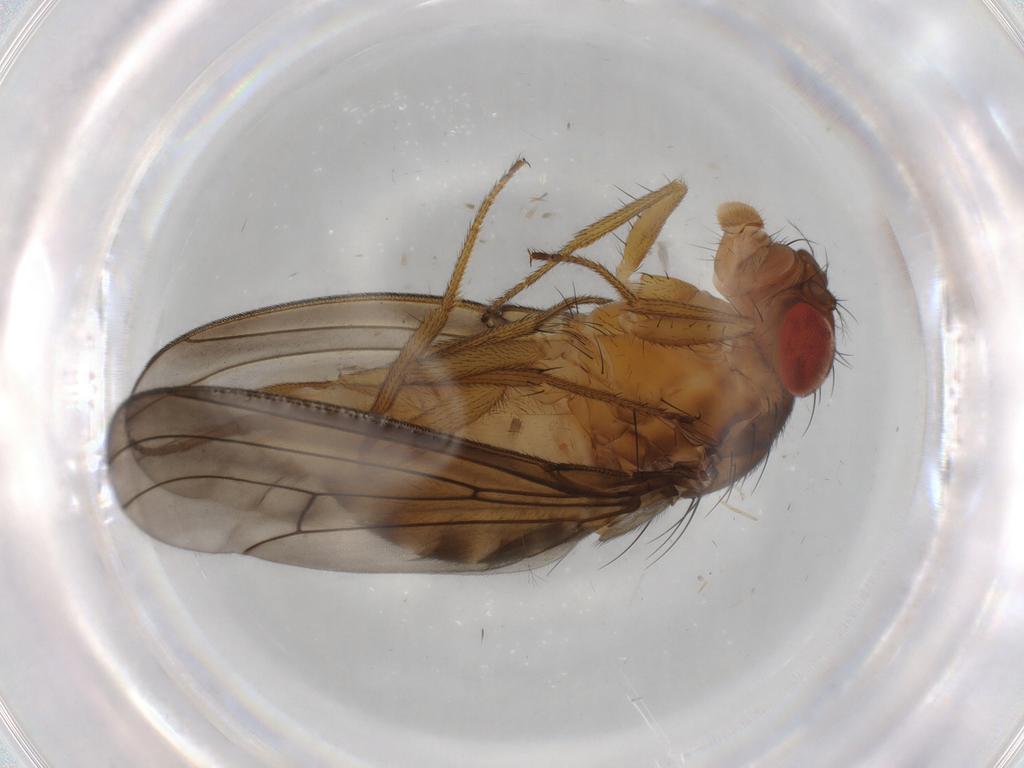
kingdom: Animalia
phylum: Arthropoda
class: Insecta
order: Diptera
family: Drosophilidae
